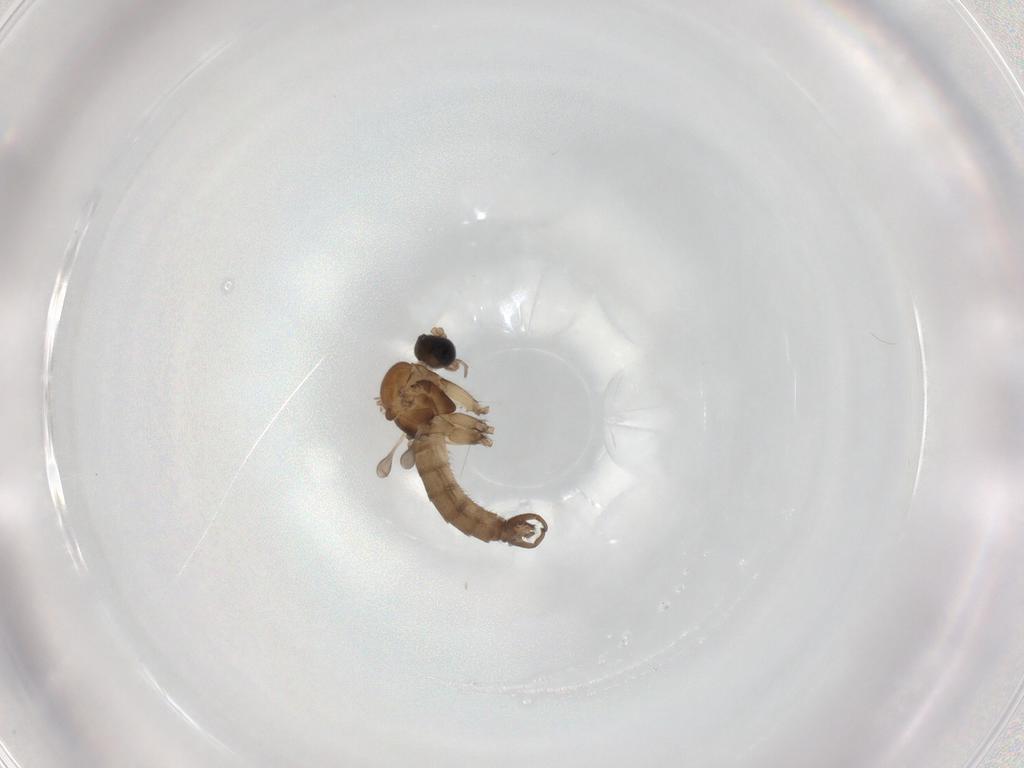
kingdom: Animalia
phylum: Arthropoda
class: Insecta
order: Diptera
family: Sciaridae
